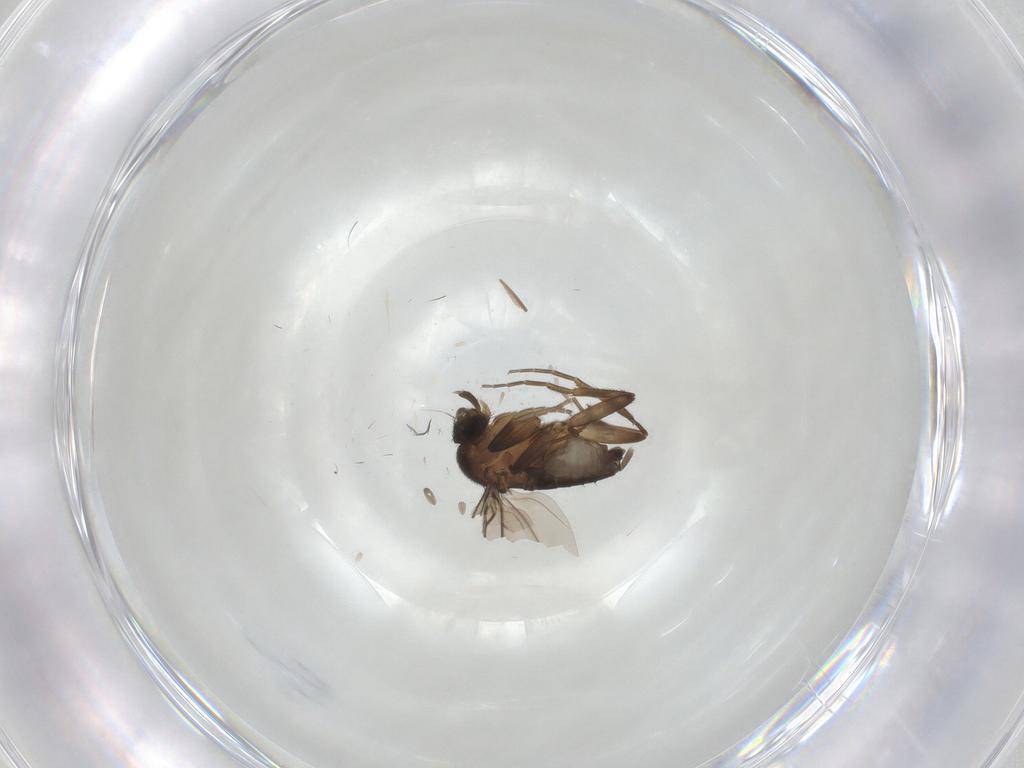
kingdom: Animalia
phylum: Arthropoda
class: Insecta
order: Diptera
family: Phoridae
